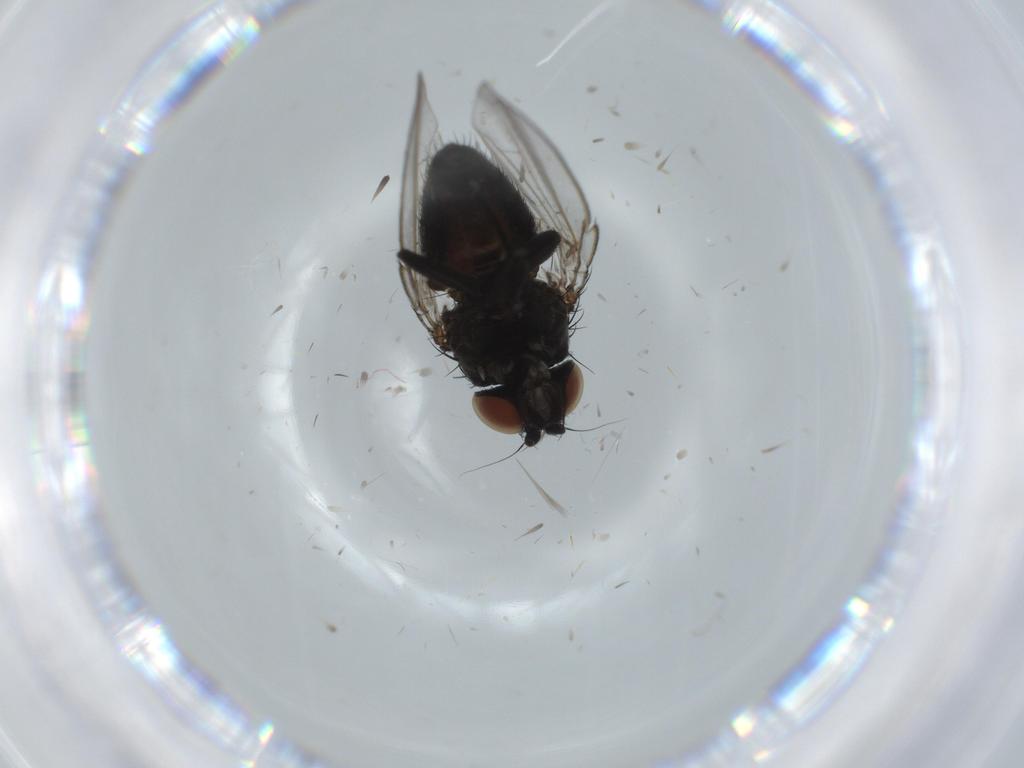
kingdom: Animalia
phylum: Arthropoda
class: Insecta
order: Diptera
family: Milichiidae
